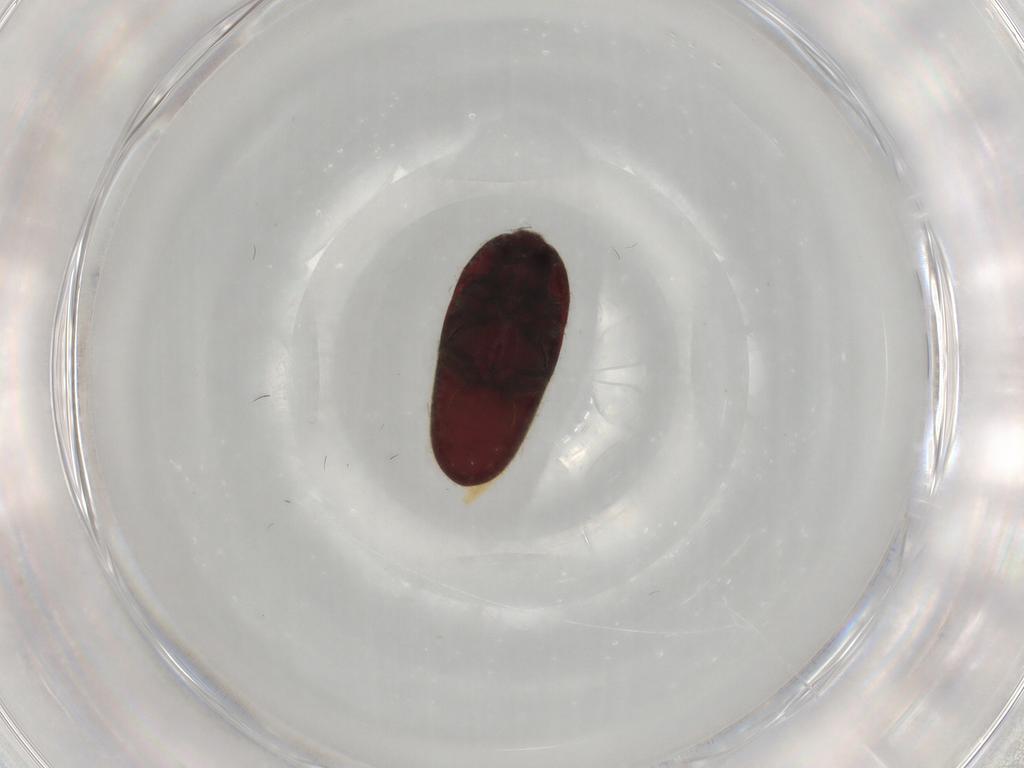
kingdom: Animalia
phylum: Arthropoda
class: Insecta
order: Coleoptera
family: Throscidae
